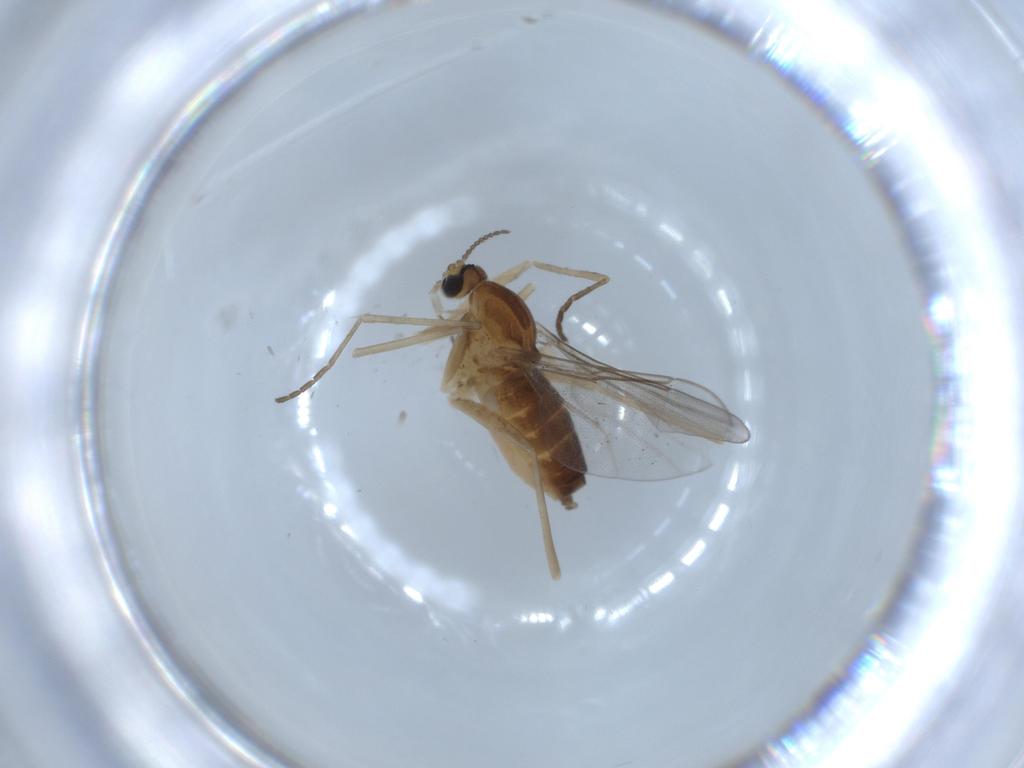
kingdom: Animalia
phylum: Arthropoda
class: Insecta
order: Diptera
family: Cecidomyiidae
